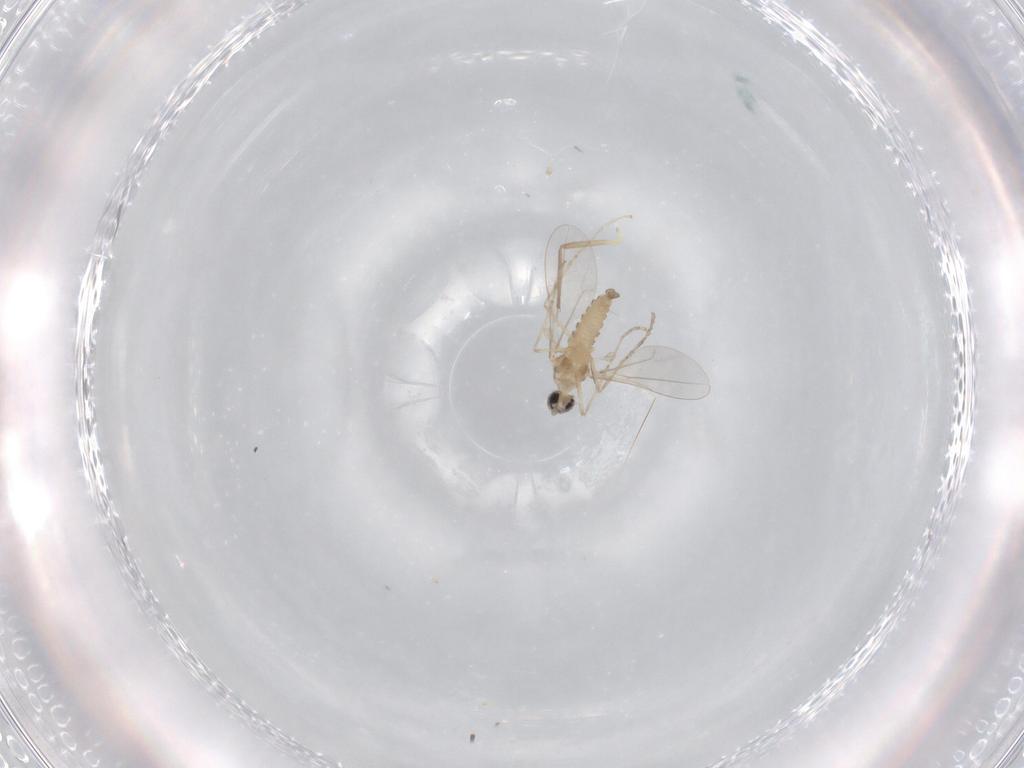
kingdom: Animalia
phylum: Arthropoda
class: Insecta
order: Diptera
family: Cecidomyiidae
